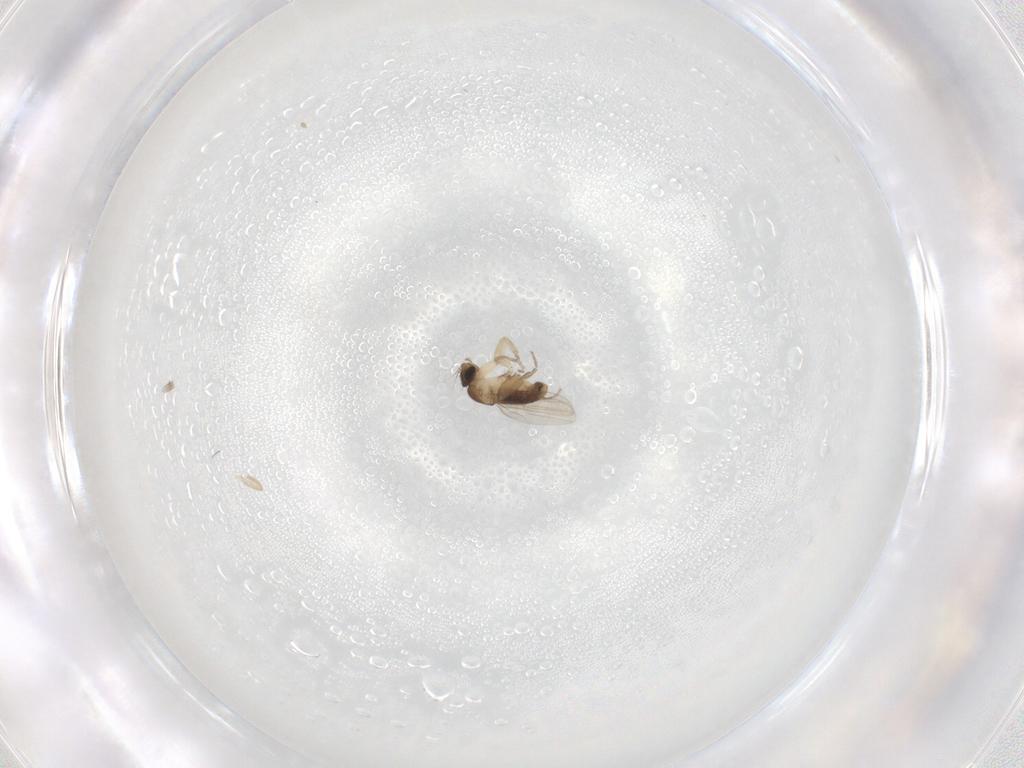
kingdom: Animalia
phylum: Arthropoda
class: Insecta
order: Diptera
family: Phoridae
